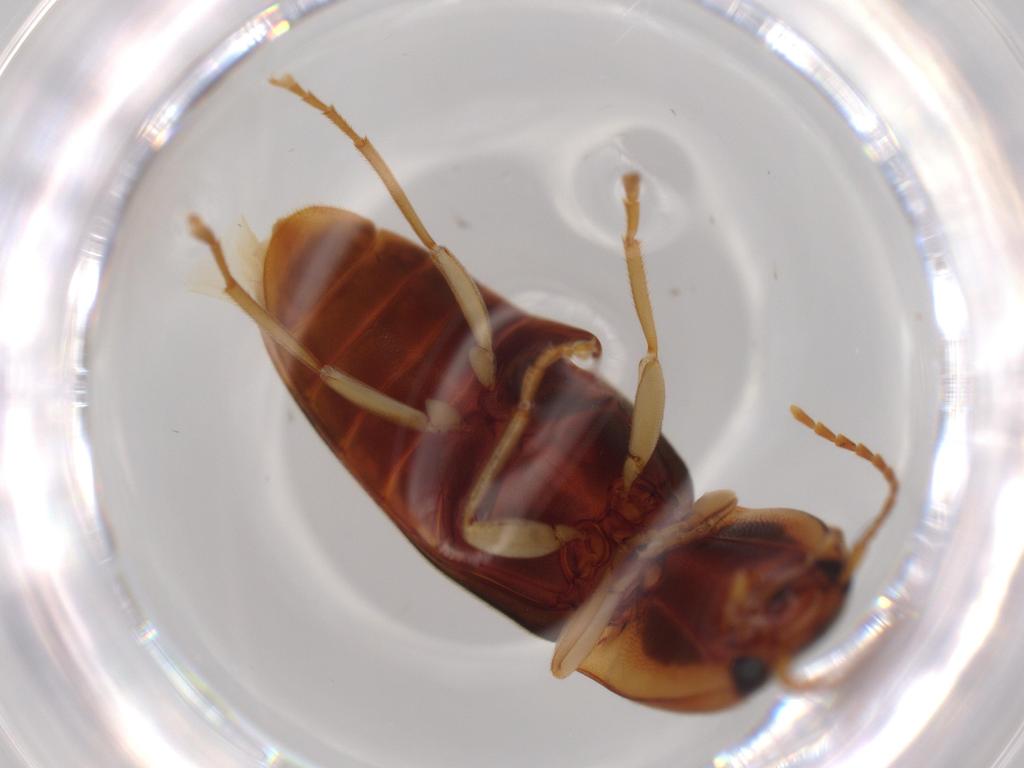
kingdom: Animalia
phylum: Arthropoda
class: Insecta
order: Coleoptera
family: Elateridae
